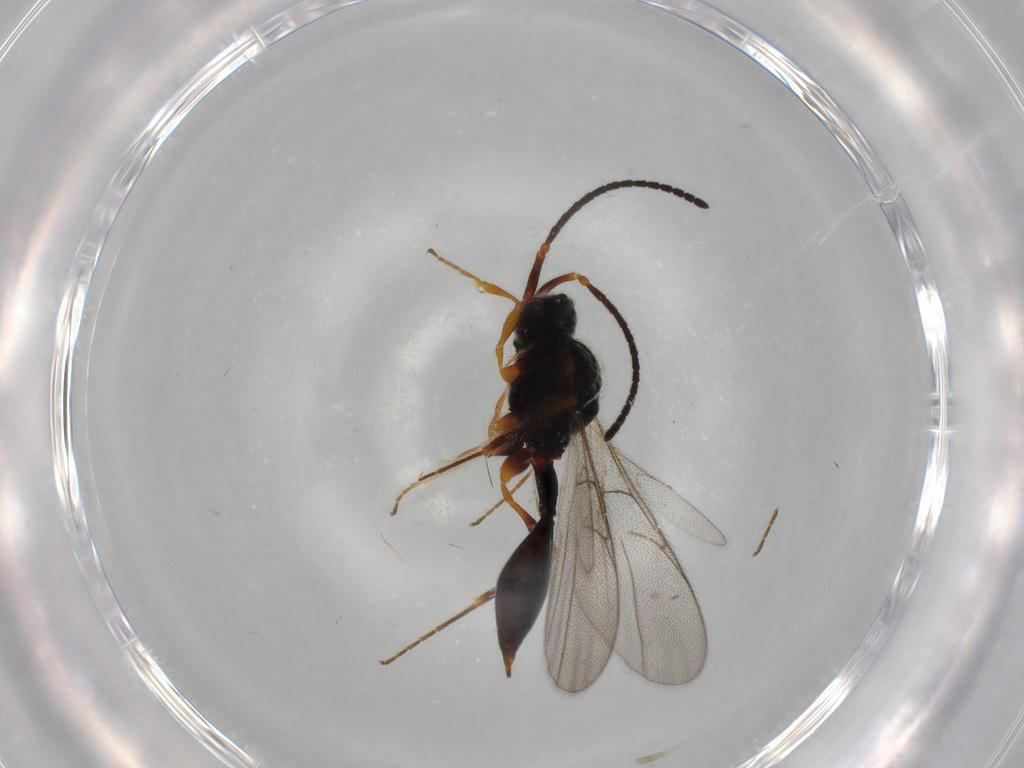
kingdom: Animalia
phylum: Arthropoda
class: Insecta
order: Hymenoptera
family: Diapriidae
